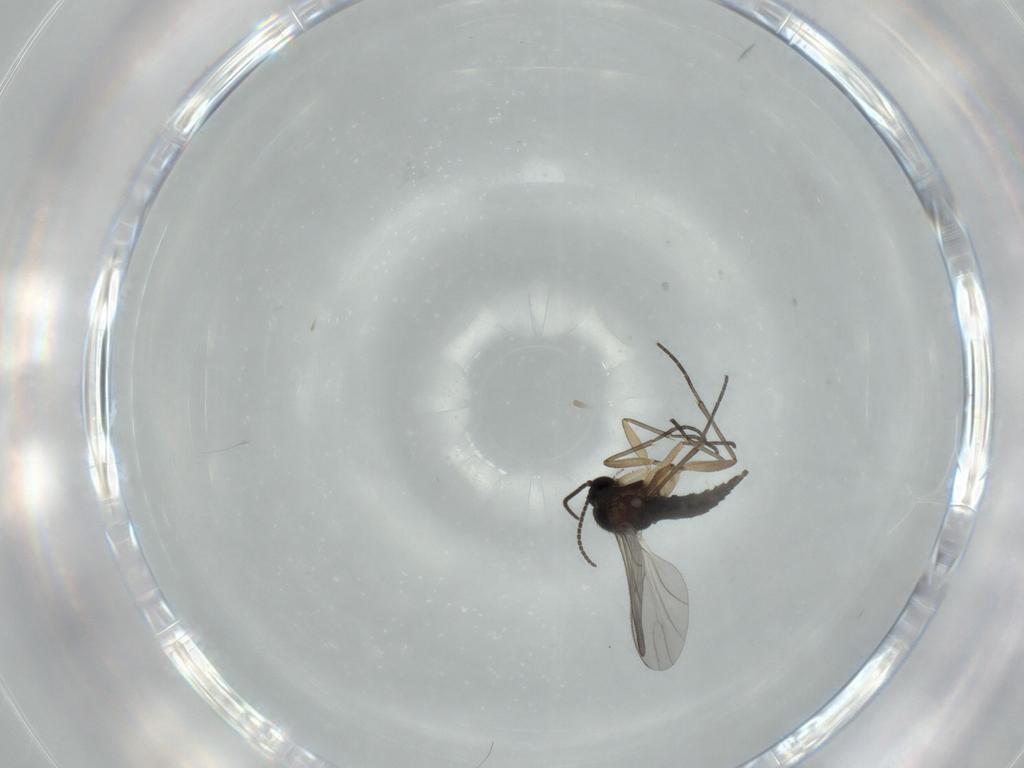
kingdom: Animalia
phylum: Arthropoda
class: Insecta
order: Diptera
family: Sciaridae
